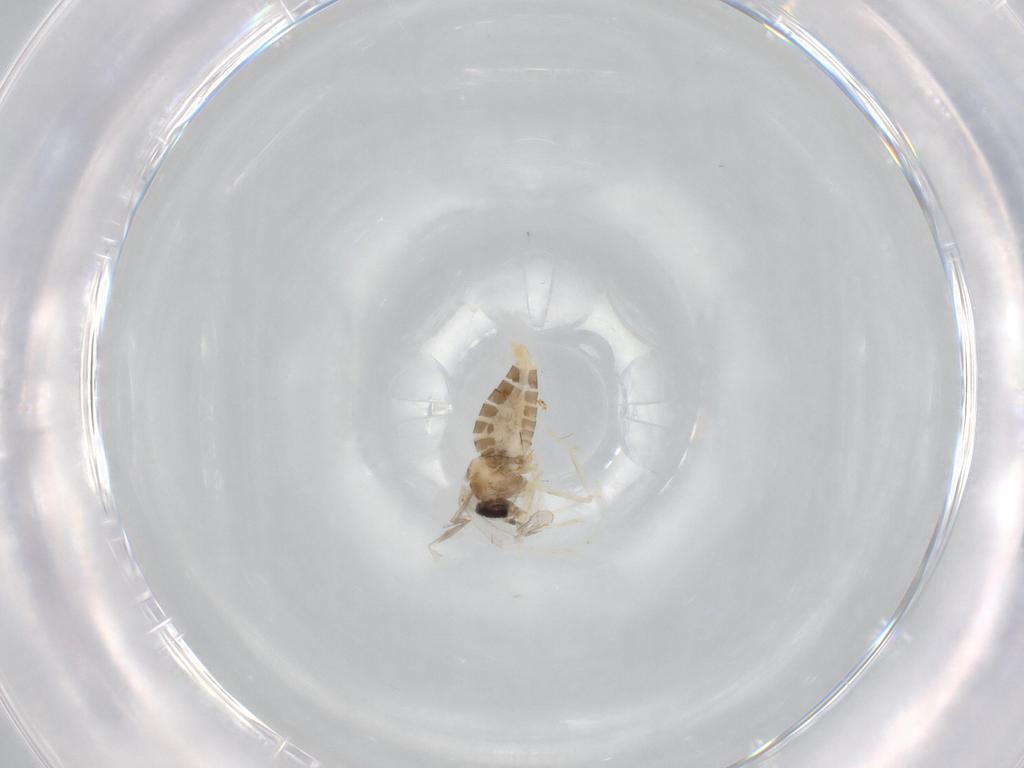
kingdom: Animalia
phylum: Arthropoda
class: Insecta
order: Diptera
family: Cecidomyiidae
